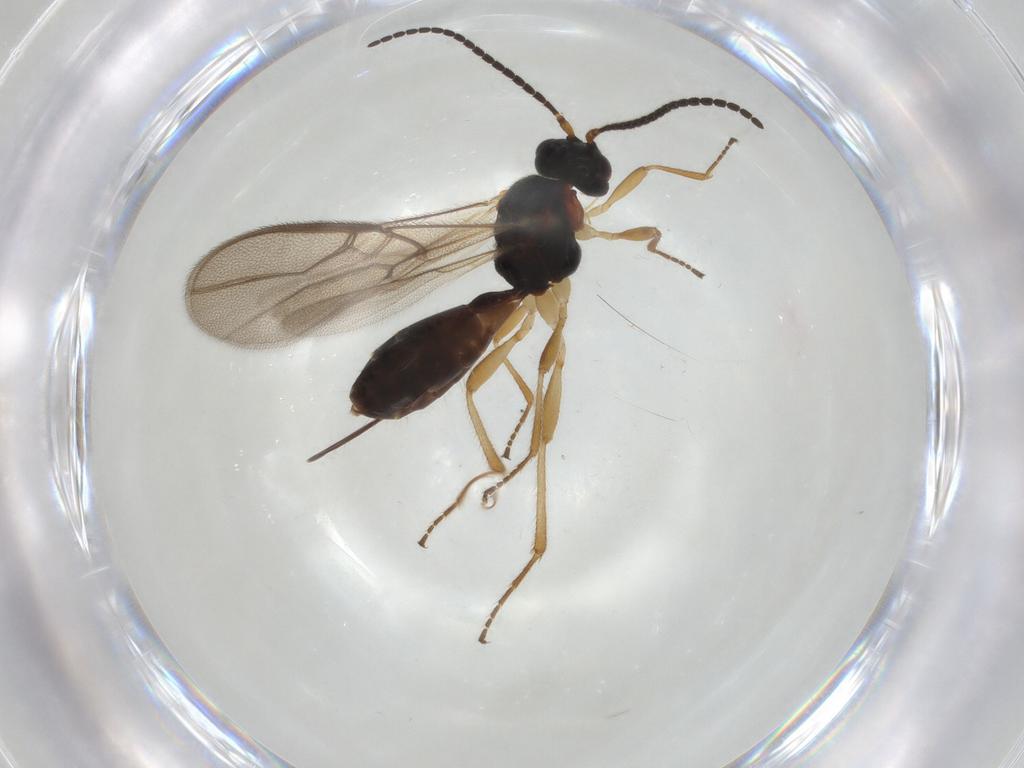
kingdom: Animalia
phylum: Arthropoda
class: Insecta
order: Hymenoptera
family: Braconidae
